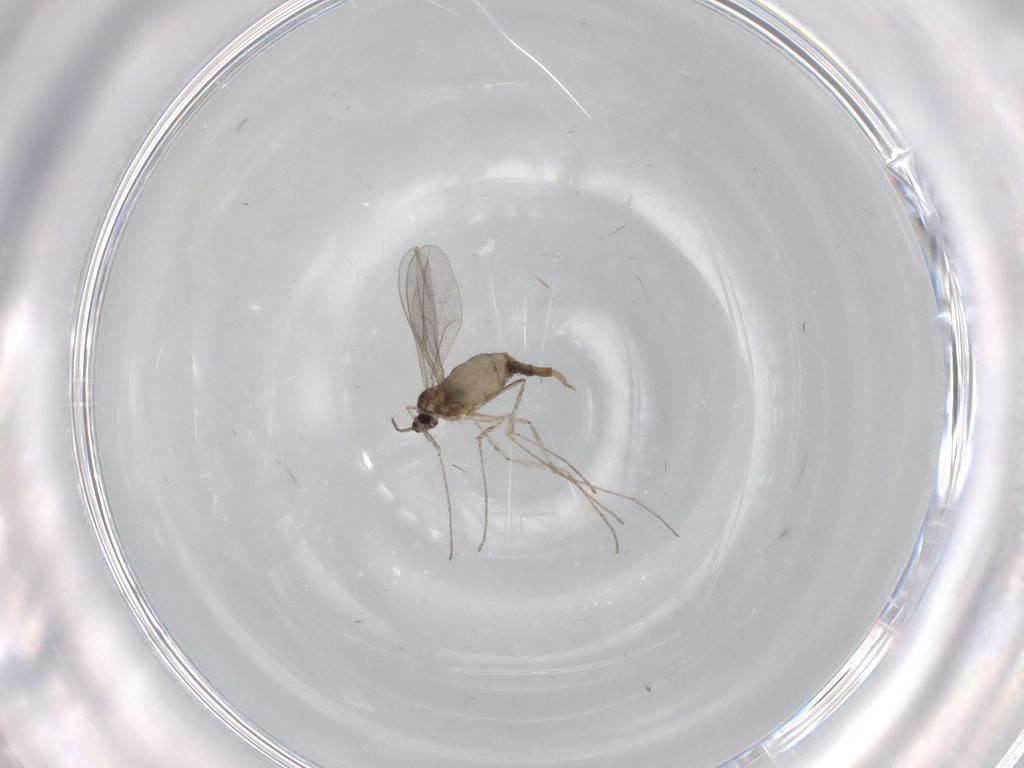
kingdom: Animalia
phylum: Arthropoda
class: Insecta
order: Diptera
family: Cecidomyiidae
